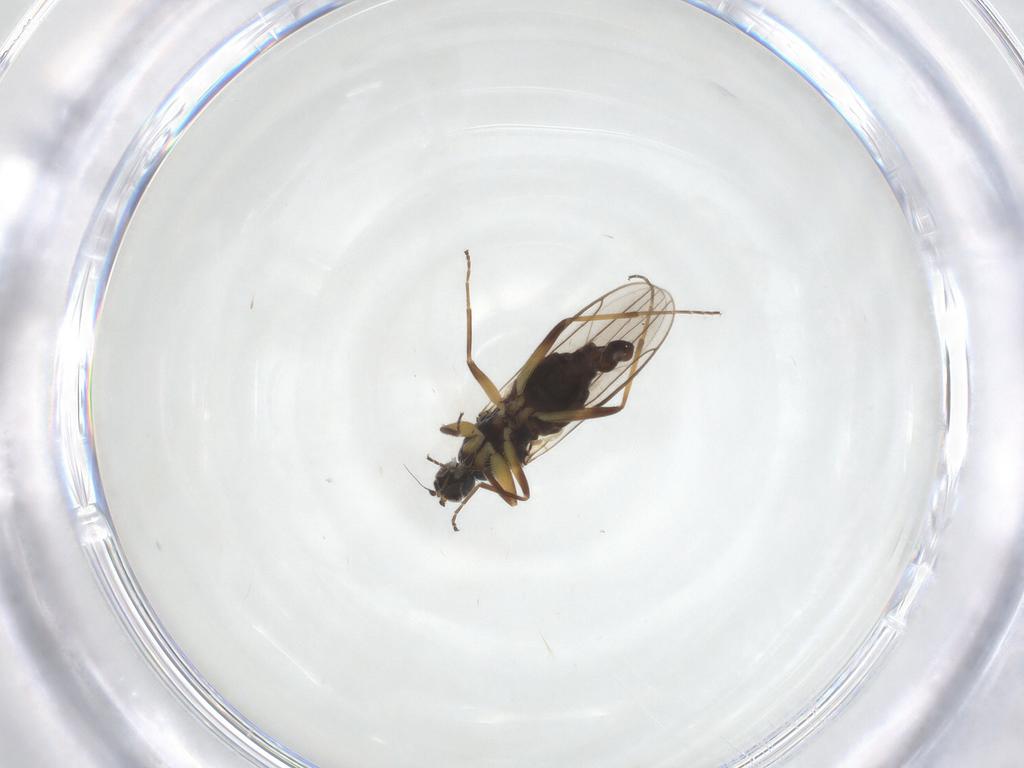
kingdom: Animalia
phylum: Arthropoda
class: Insecta
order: Diptera
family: Hybotidae
